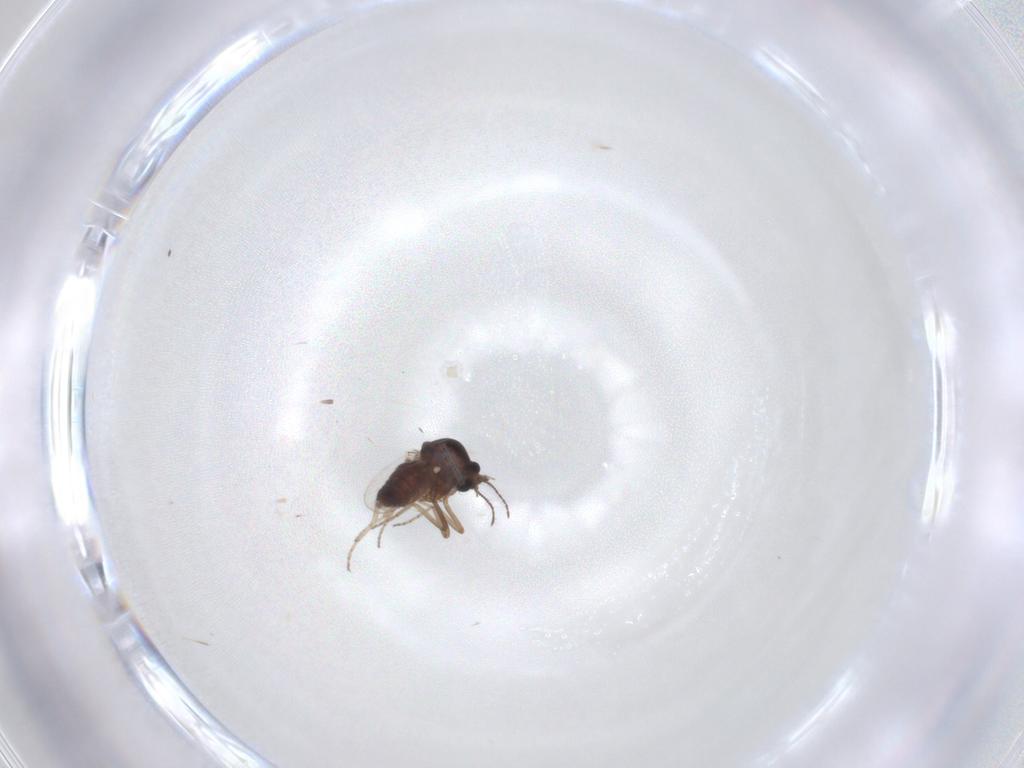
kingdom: Animalia
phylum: Arthropoda
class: Insecta
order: Diptera
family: Ceratopogonidae
